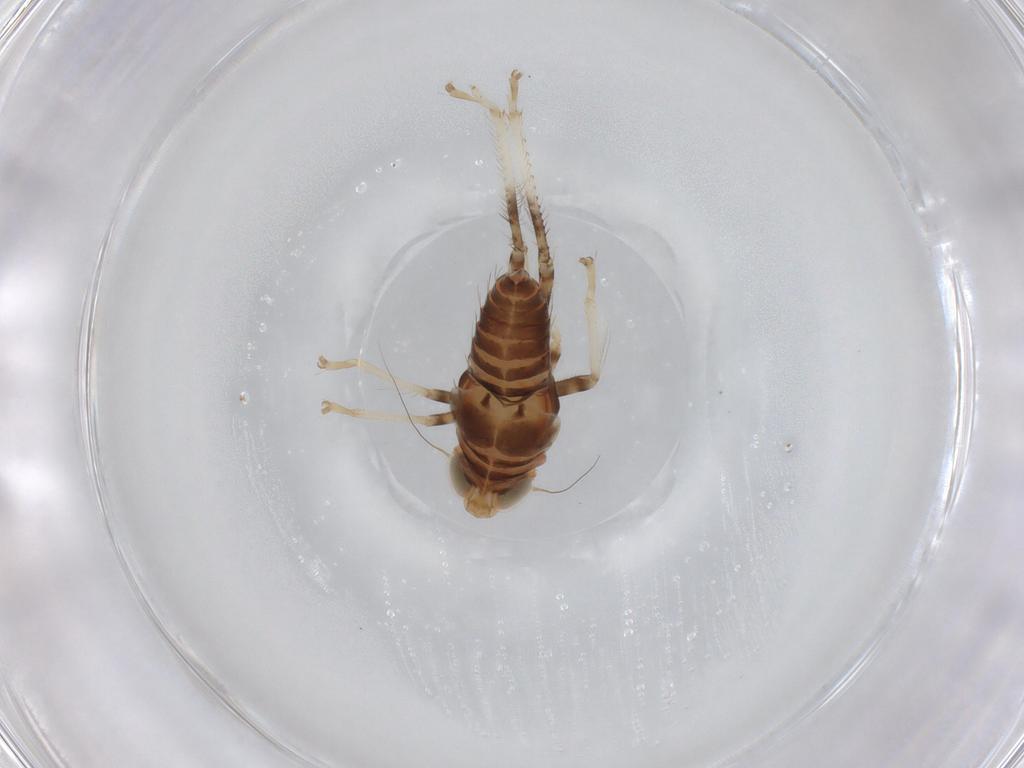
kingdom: Animalia
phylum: Arthropoda
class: Insecta
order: Hemiptera
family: Cicadellidae
